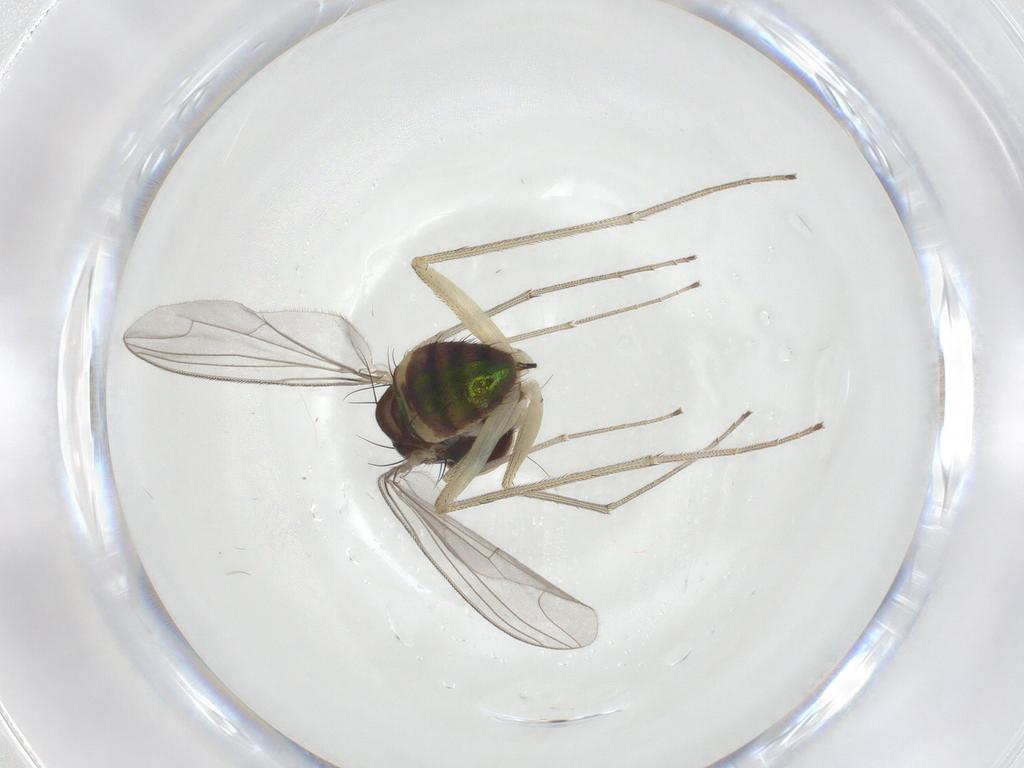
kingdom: Animalia
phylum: Arthropoda
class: Insecta
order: Diptera
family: Dolichopodidae
